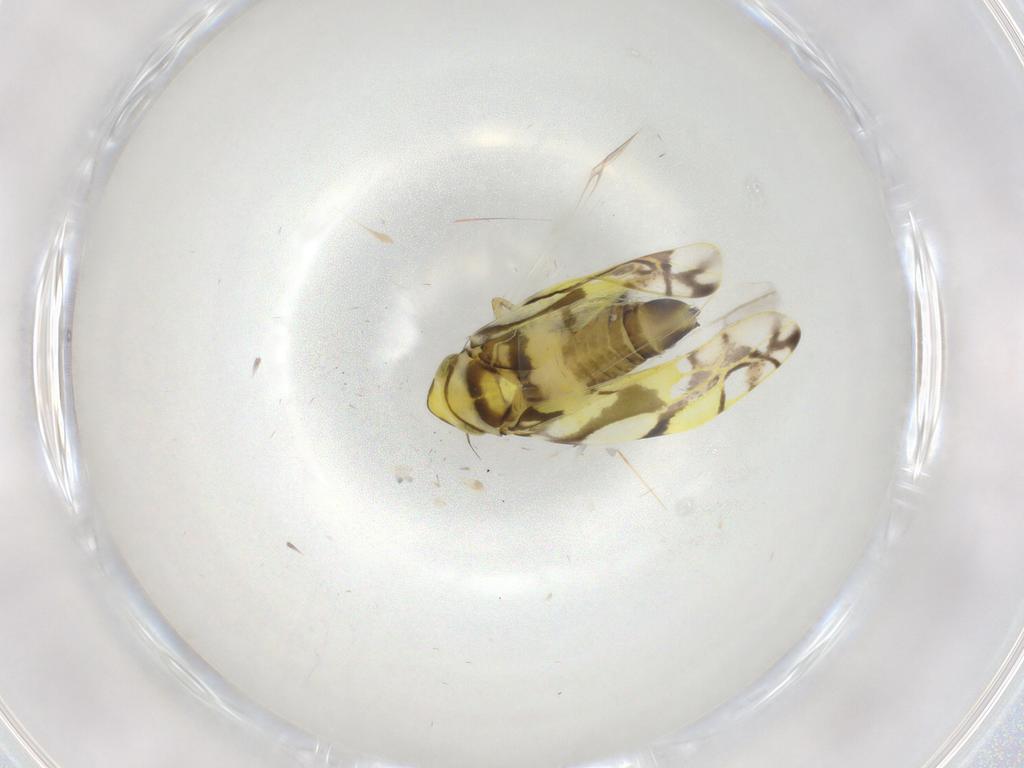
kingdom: Animalia
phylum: Arthropoda
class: Insecta
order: Hemiptera
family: Cicadellidae
